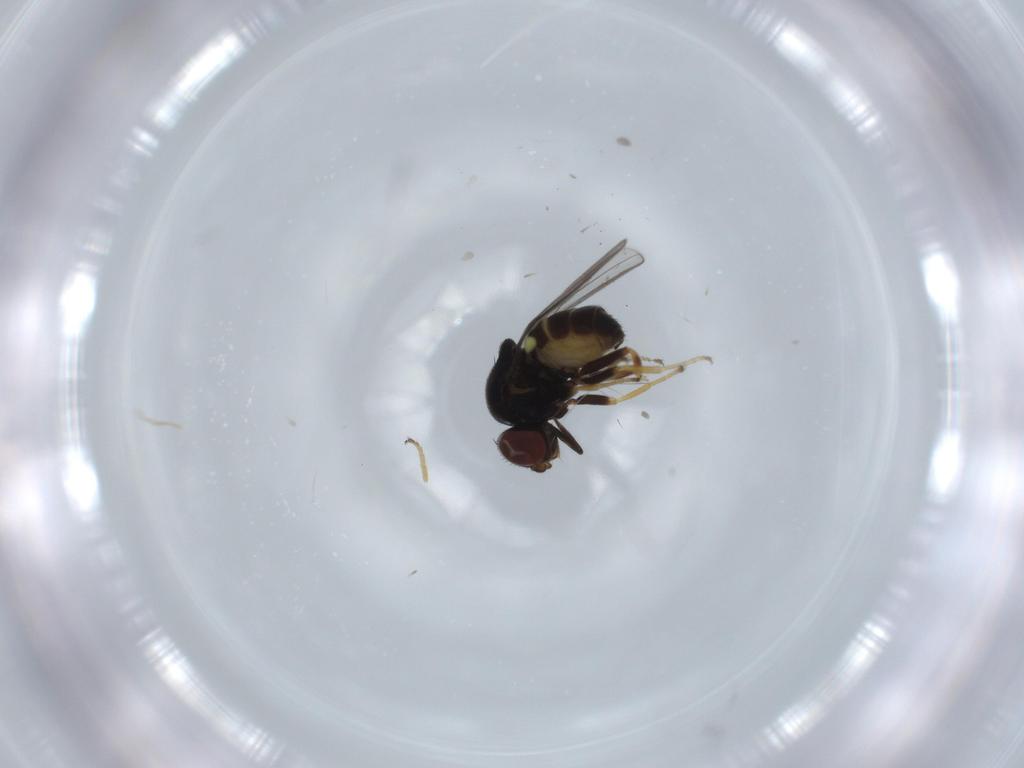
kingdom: Animalia
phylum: Arthropoda
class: Insecta
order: Diptera
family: Chloropidae
